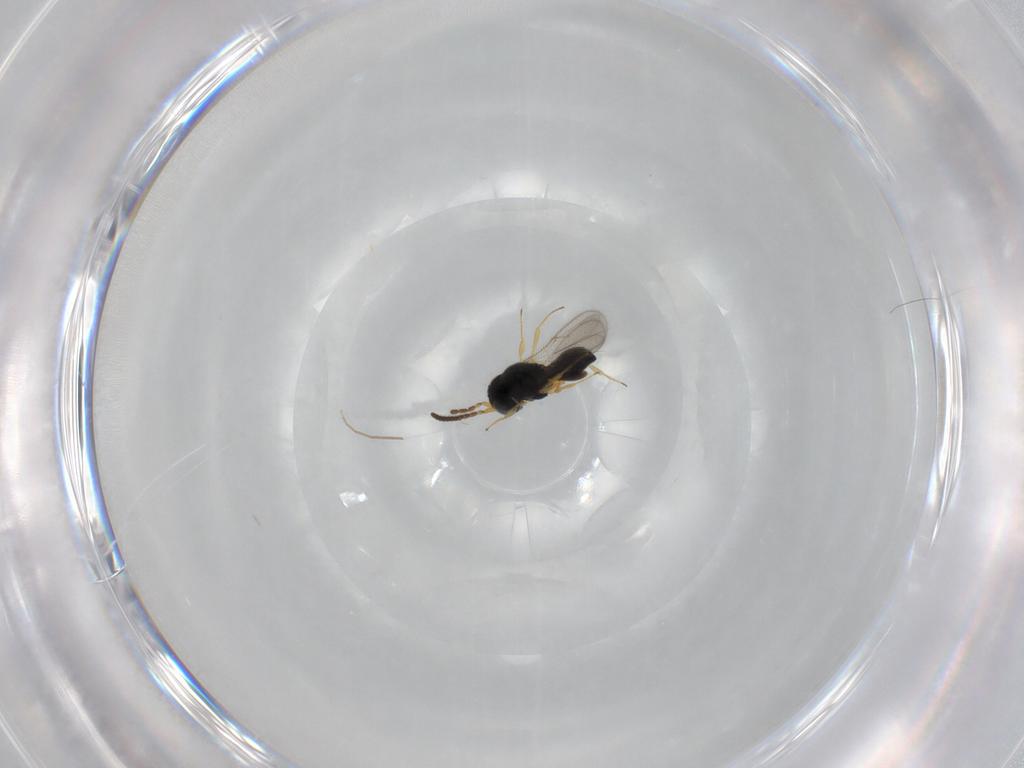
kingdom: Animalia
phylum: Arthropoda
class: Insecta
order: Hymenoptera
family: Scelionidae
